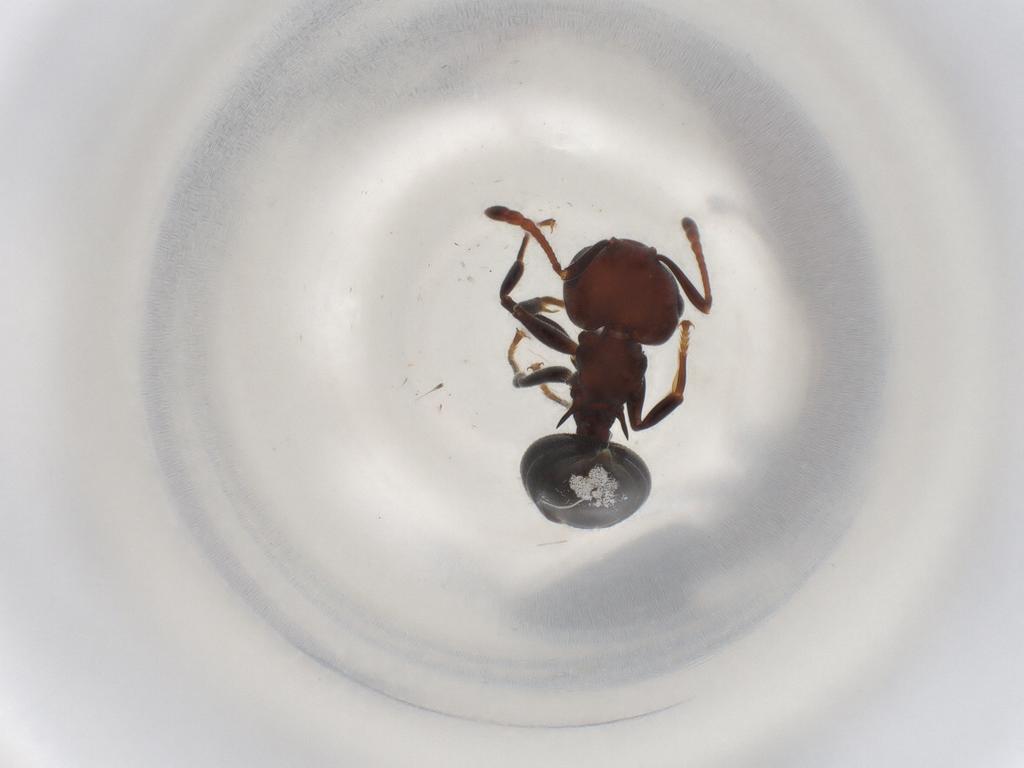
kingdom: Animalia
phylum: Arthropoda
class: Insecta
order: Hymenoptera
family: Formicidae
